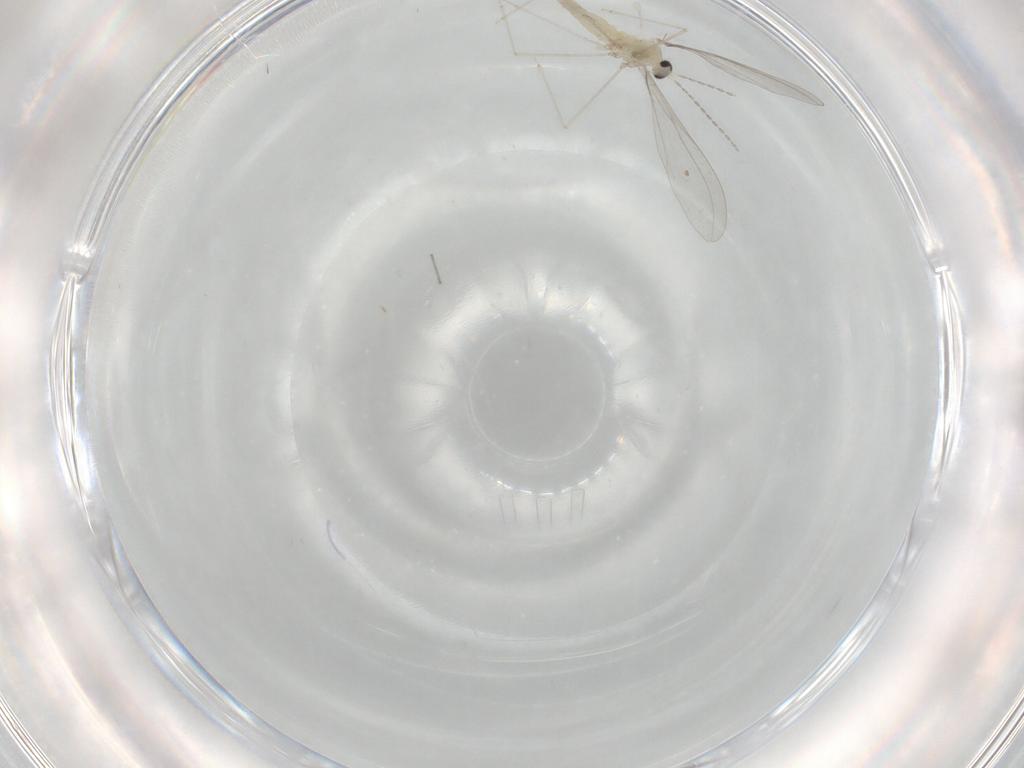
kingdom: Animalia
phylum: Arthropoda
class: Insecta
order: Diptera
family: Cecidomyiidae
